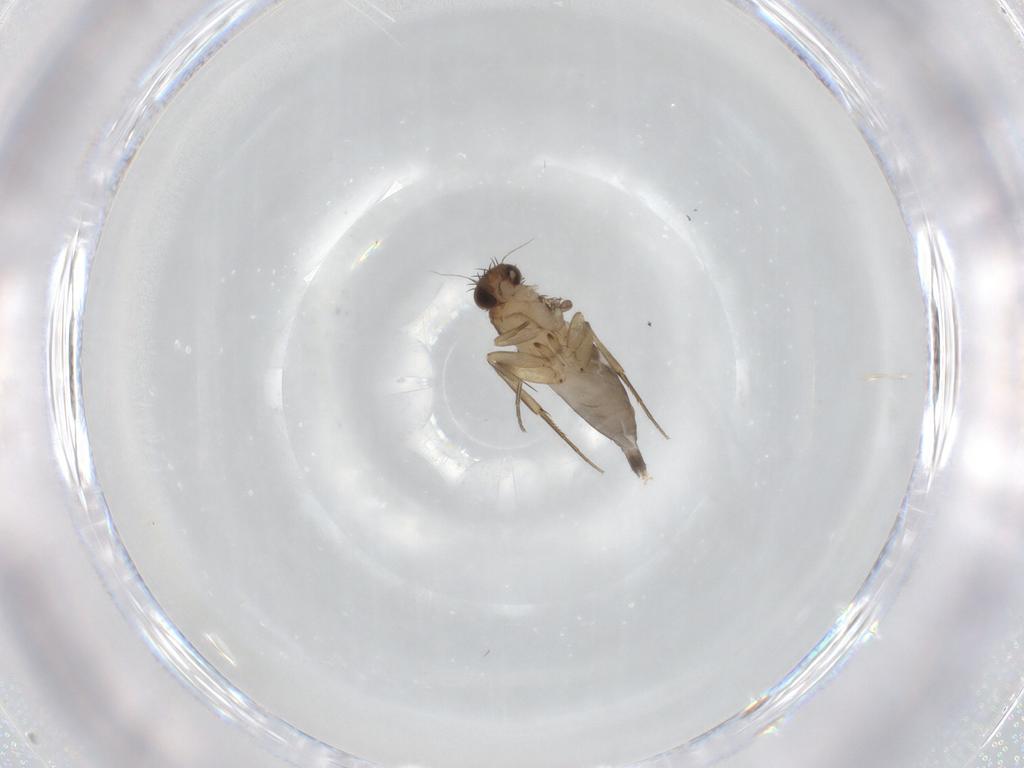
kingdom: Animalia
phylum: Arthropoda
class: Insecta
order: Diptera
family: Phoridae
